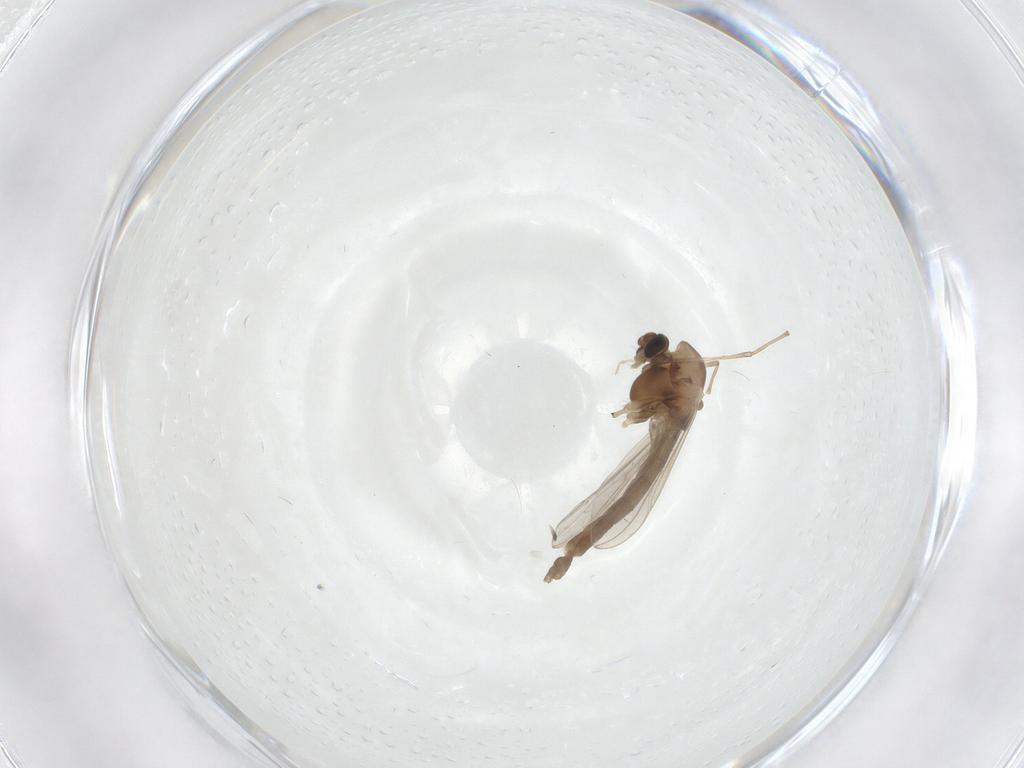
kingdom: Animalia
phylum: Arthropoda
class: Insecta
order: Diptera
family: Chironomidae
